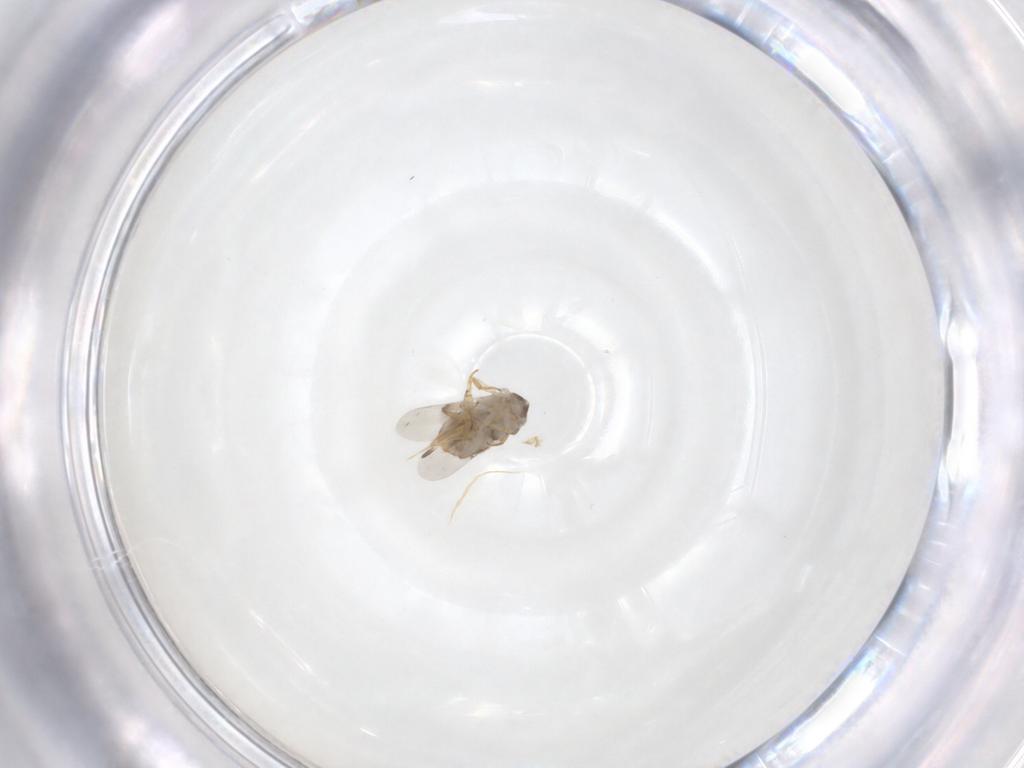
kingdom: Animalia
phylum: Arthropoda
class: Insecta
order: Hymenoptera
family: Encyrtidae
